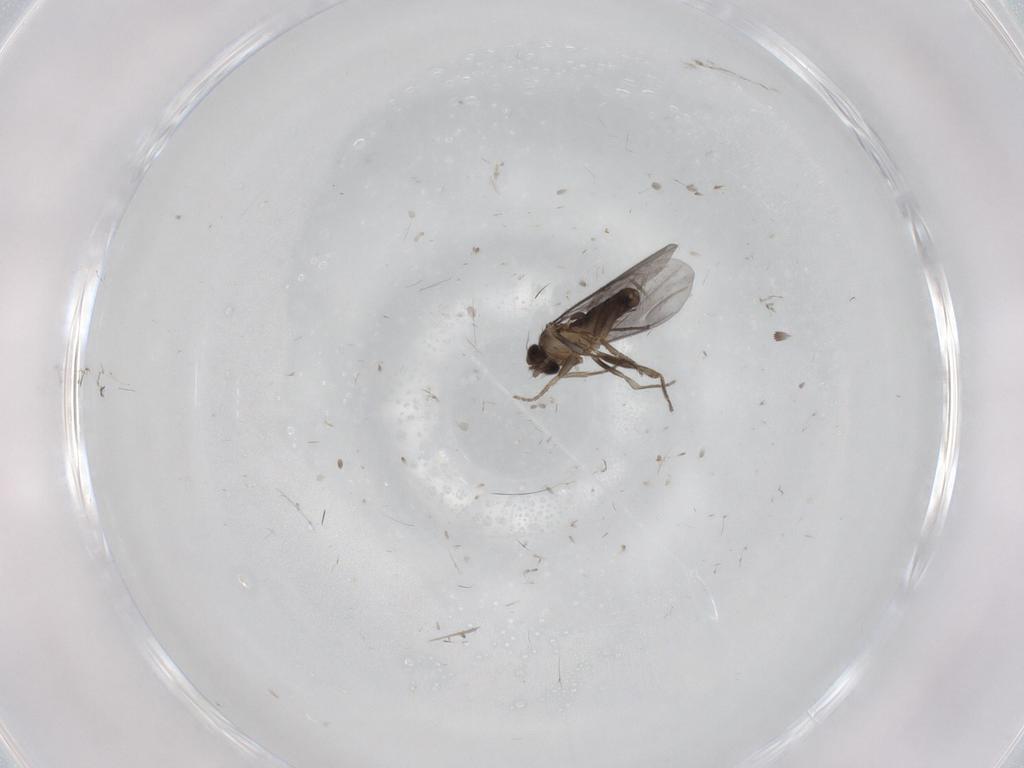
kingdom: Animalia
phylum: Arthropoda
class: Insecta
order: Diptera
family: Phoridae
